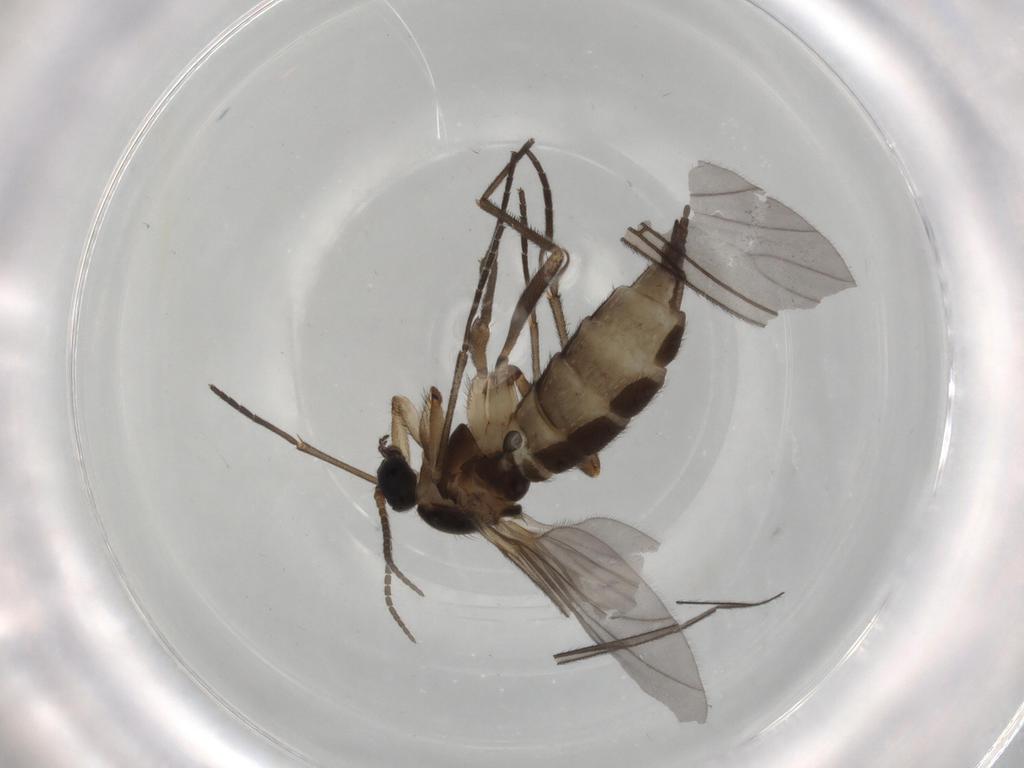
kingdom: Animalia
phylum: Arthropoda
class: Insecta
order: Diptera
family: Sciaridae
